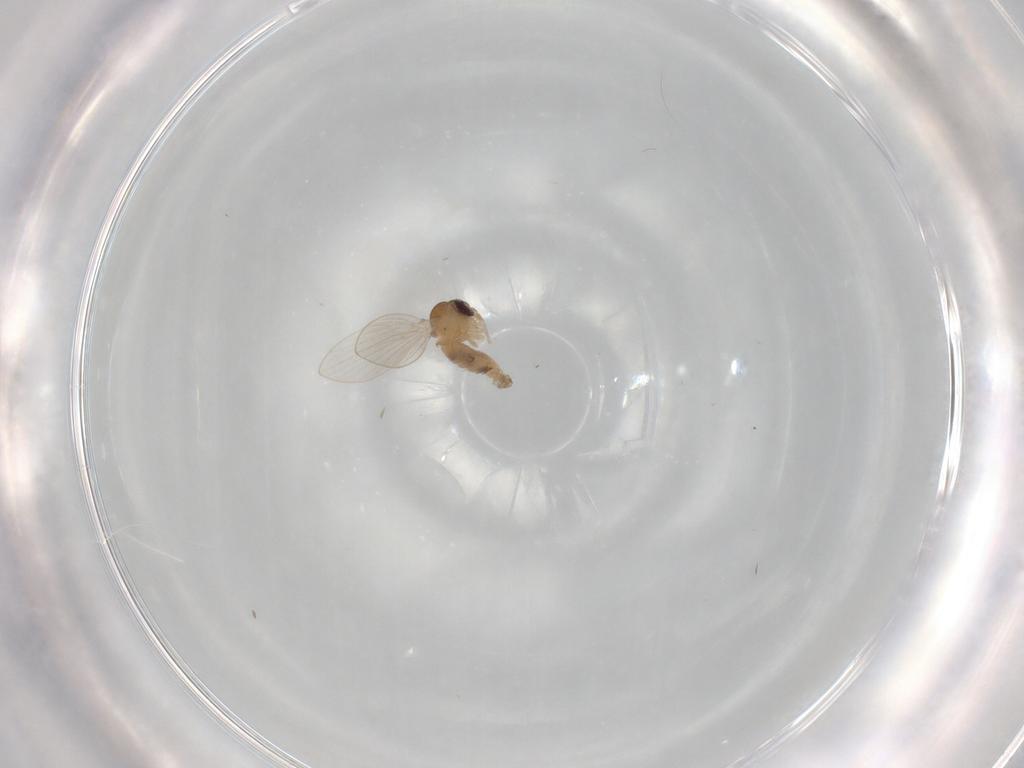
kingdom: Animalia
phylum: Arthropoda
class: Insecta
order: Diptera
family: Psychodidae
